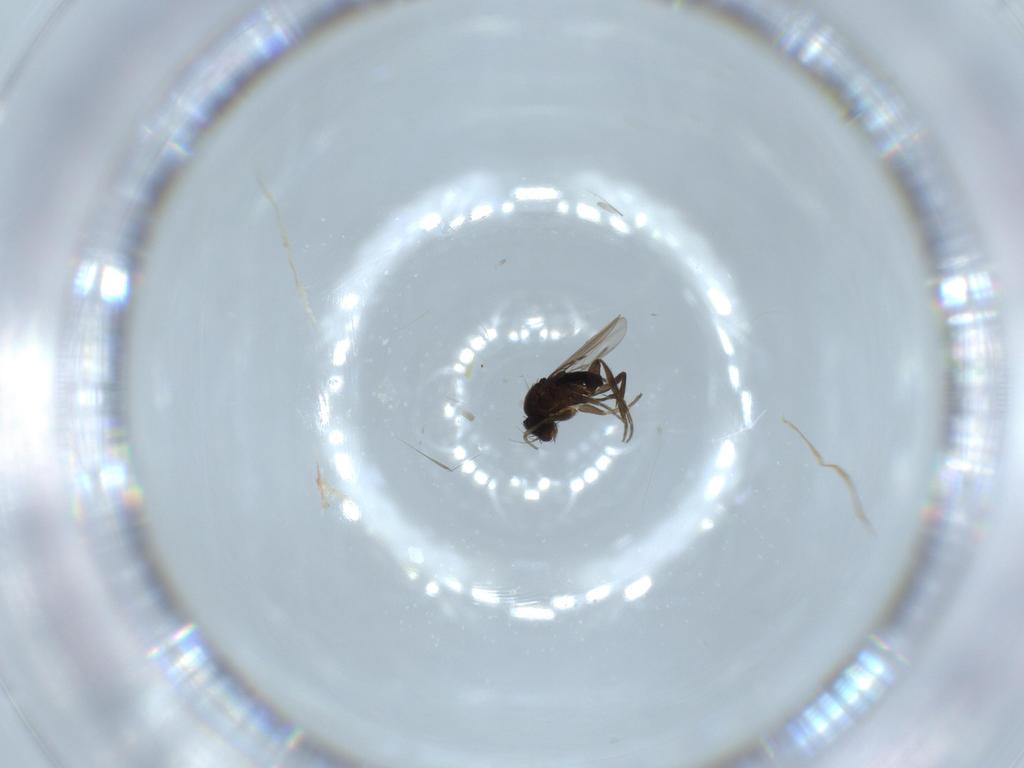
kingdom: Animalia
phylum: Arthropoda
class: Insecta
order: Diptera
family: Phoridae
